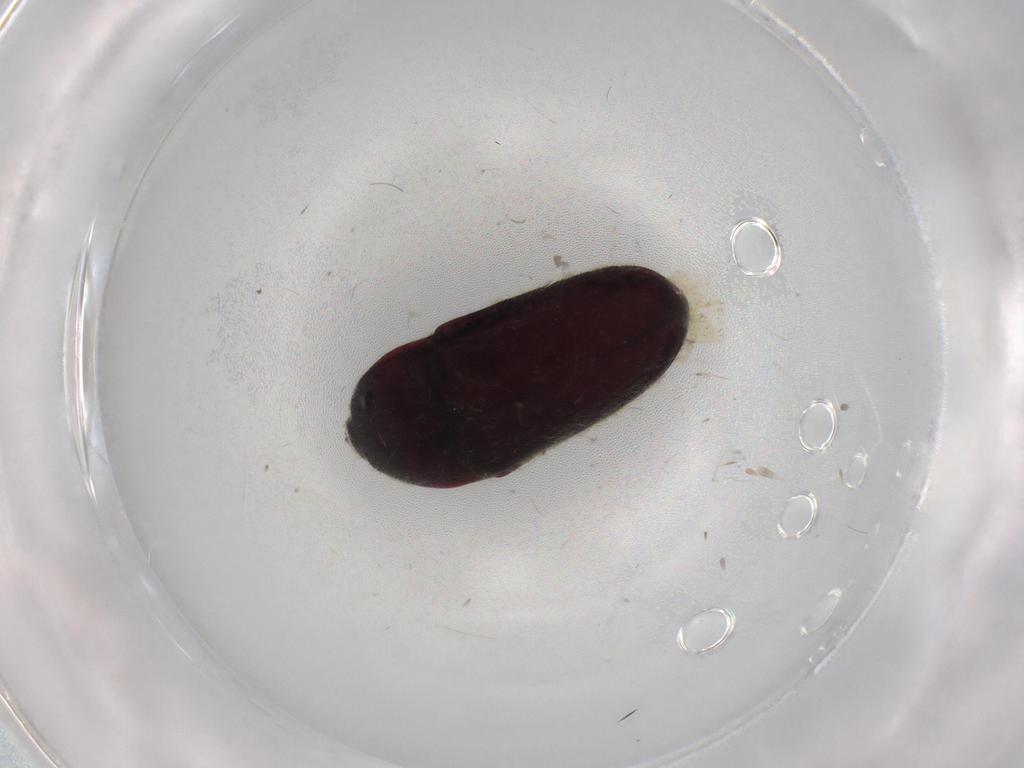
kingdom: Animalia
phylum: Arthropoda
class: Insecta
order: Coleoptera
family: Throscidae
